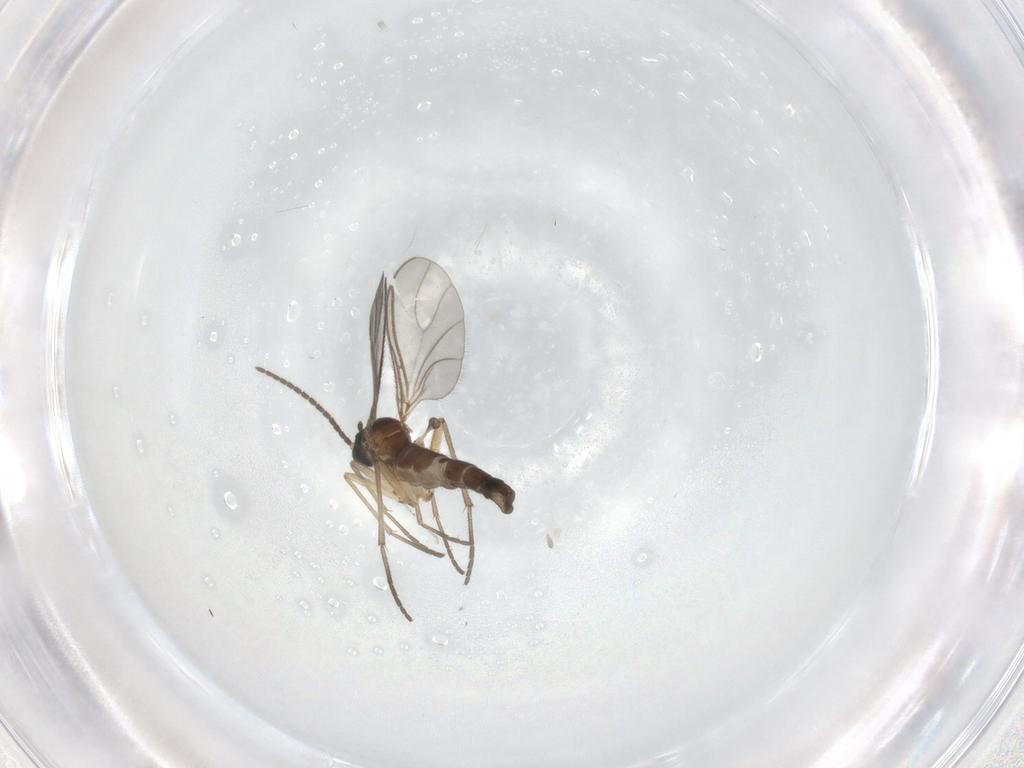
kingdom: Animalia
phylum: Arthropoda
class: Insecta
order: Diptera
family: Sciaridae
